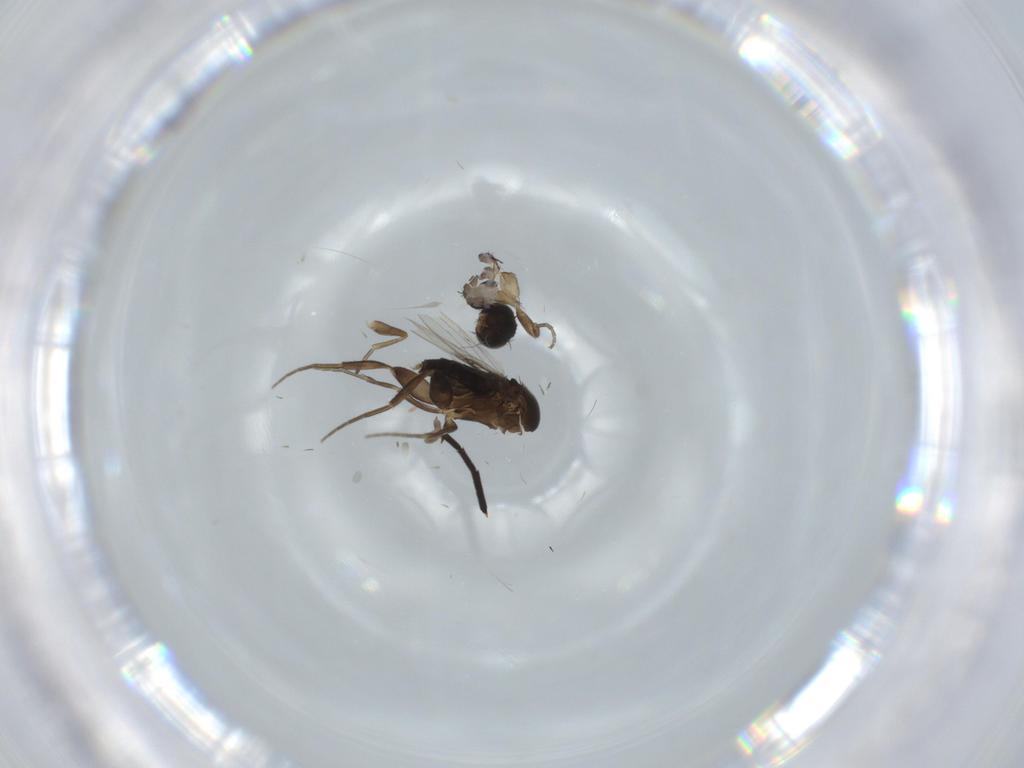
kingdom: Animalia
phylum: Arthropoda
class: Insecta
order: Diptera
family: Phoridae
